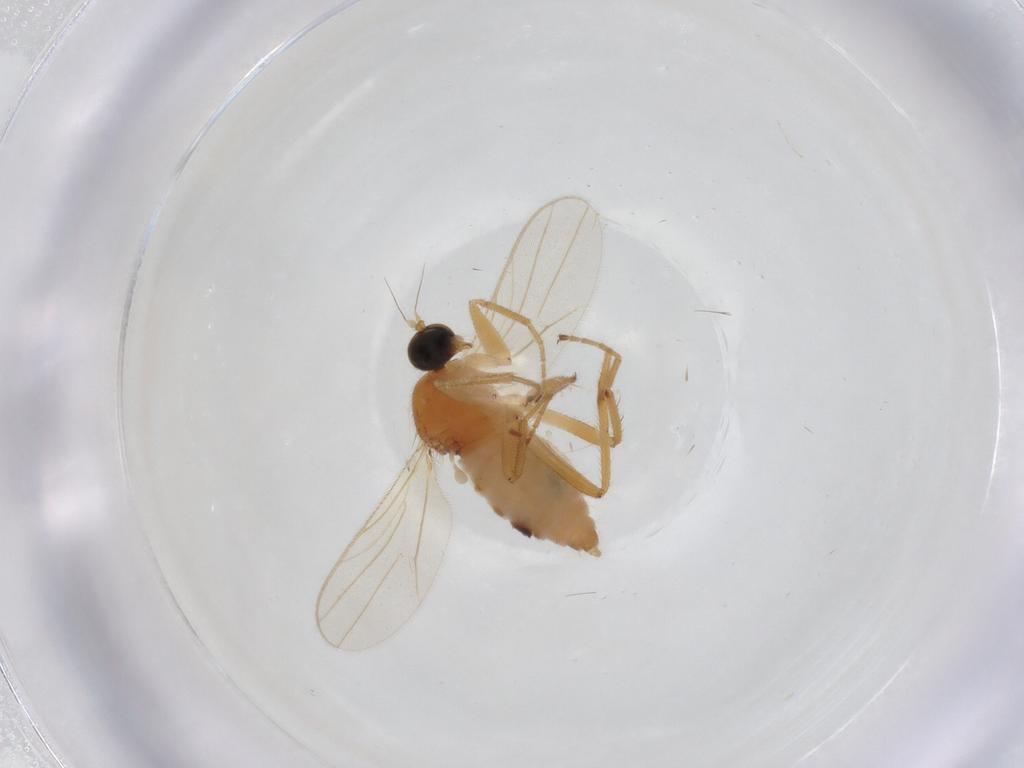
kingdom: Animalia
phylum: Arthropoda
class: Insecta
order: Diptera
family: Hybotidae
